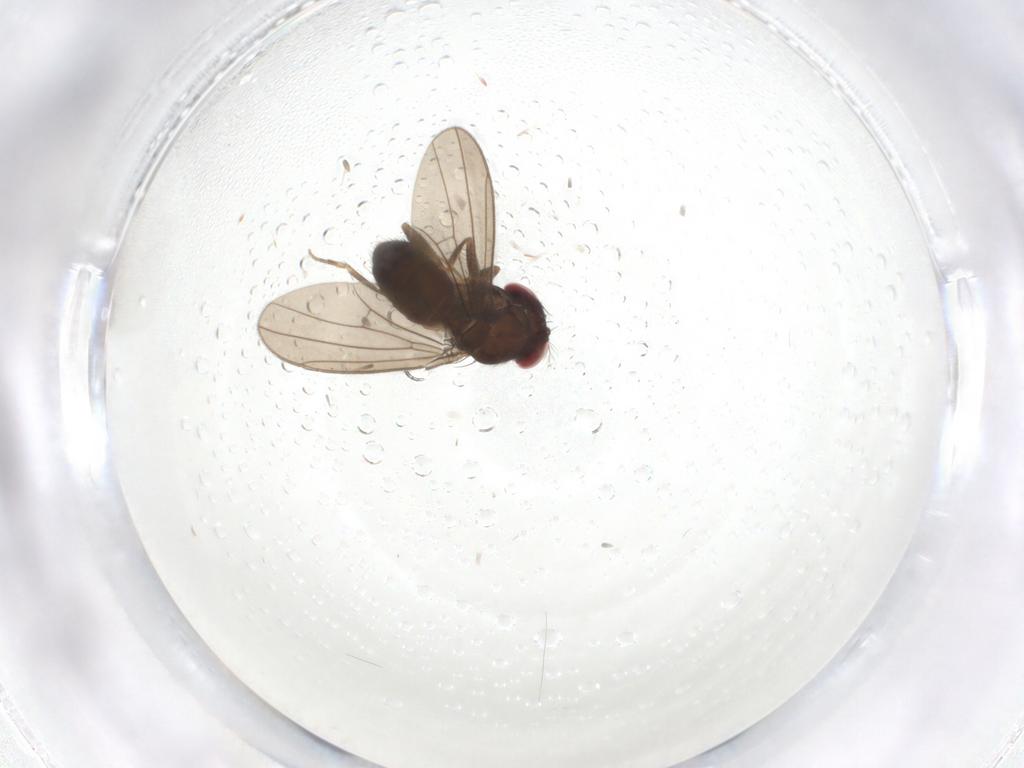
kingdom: Animalia
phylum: Arthropoda
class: Insecta
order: Diptera
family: Drosophilidae
